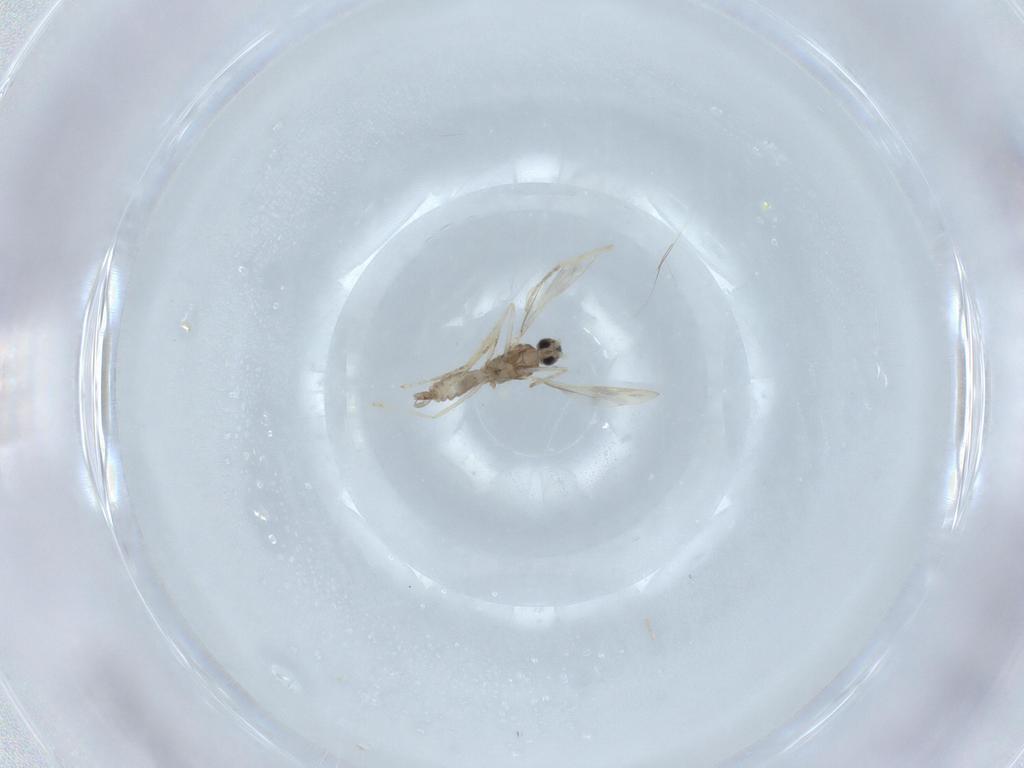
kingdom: Animalia
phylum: Arthropoda
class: Insecta
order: Diptera
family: Cecidomyiidae
